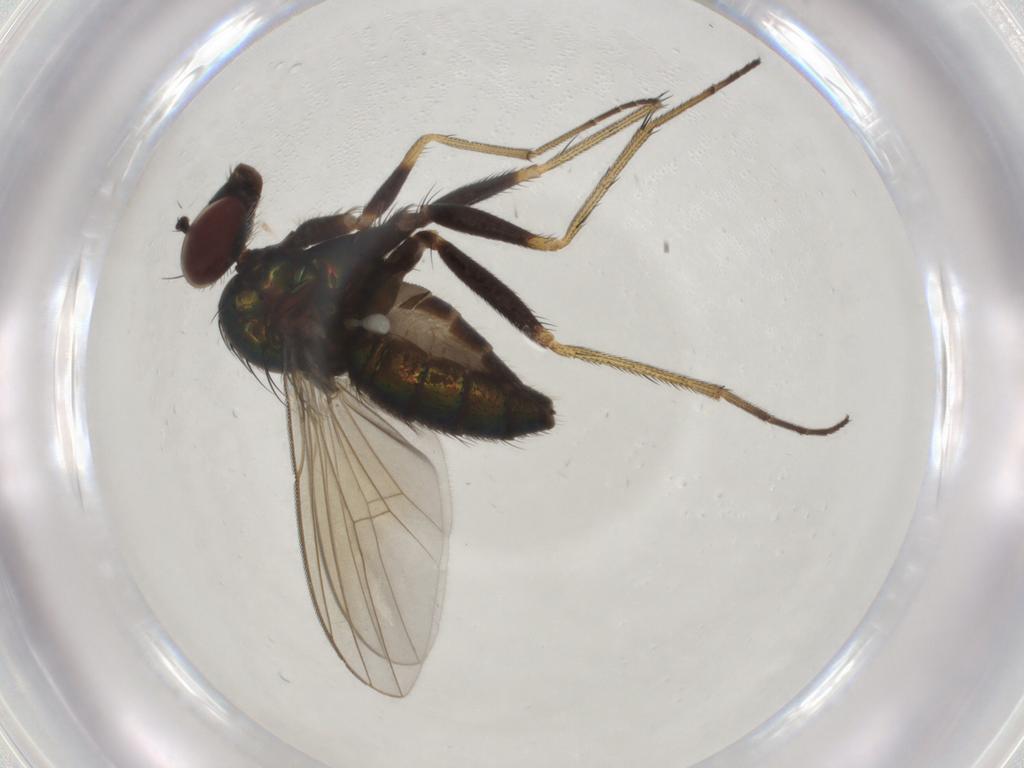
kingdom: Animalia
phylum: Arthropoda
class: Insecta
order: Diptera
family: Dolichopodidae
